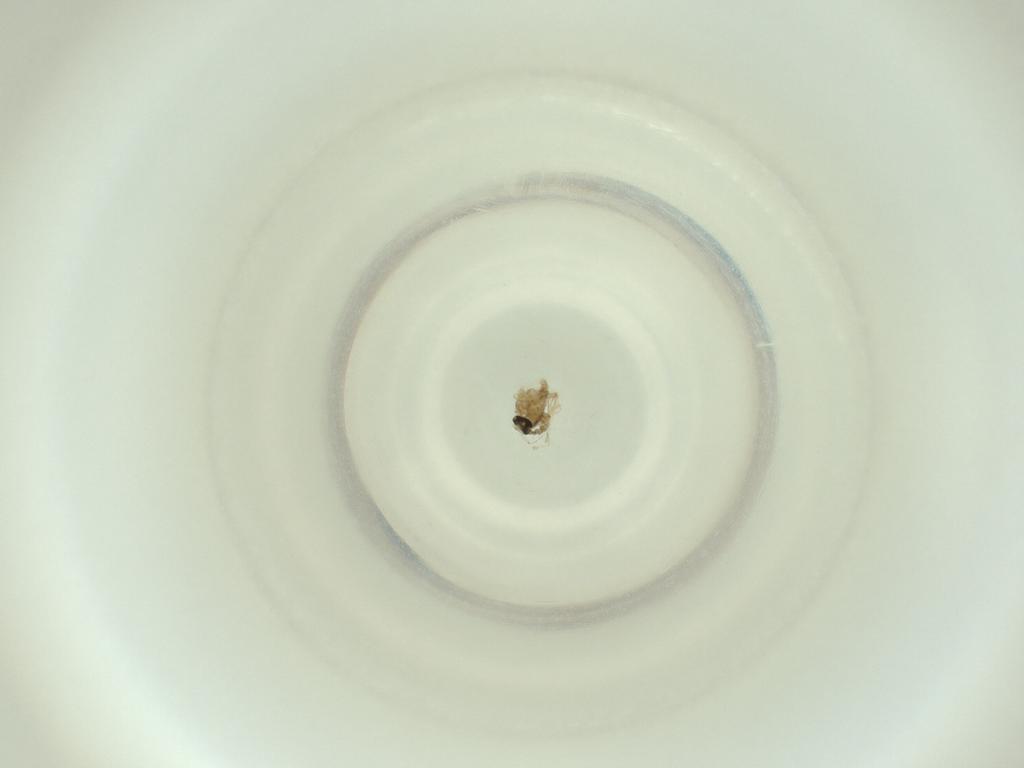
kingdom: Animalia
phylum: Arthropoda
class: Insecta
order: Diptera
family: Cecidomyiidae
